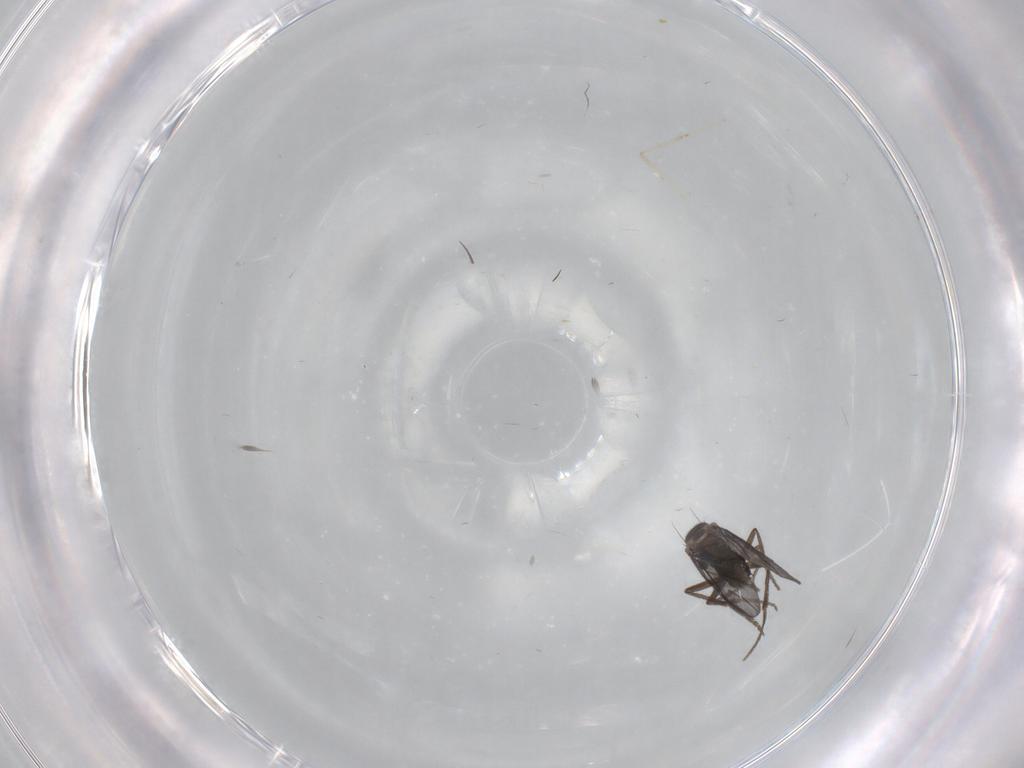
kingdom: Animalia
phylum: Arthropoda
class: Insecta
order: Diptera
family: Phoridae
